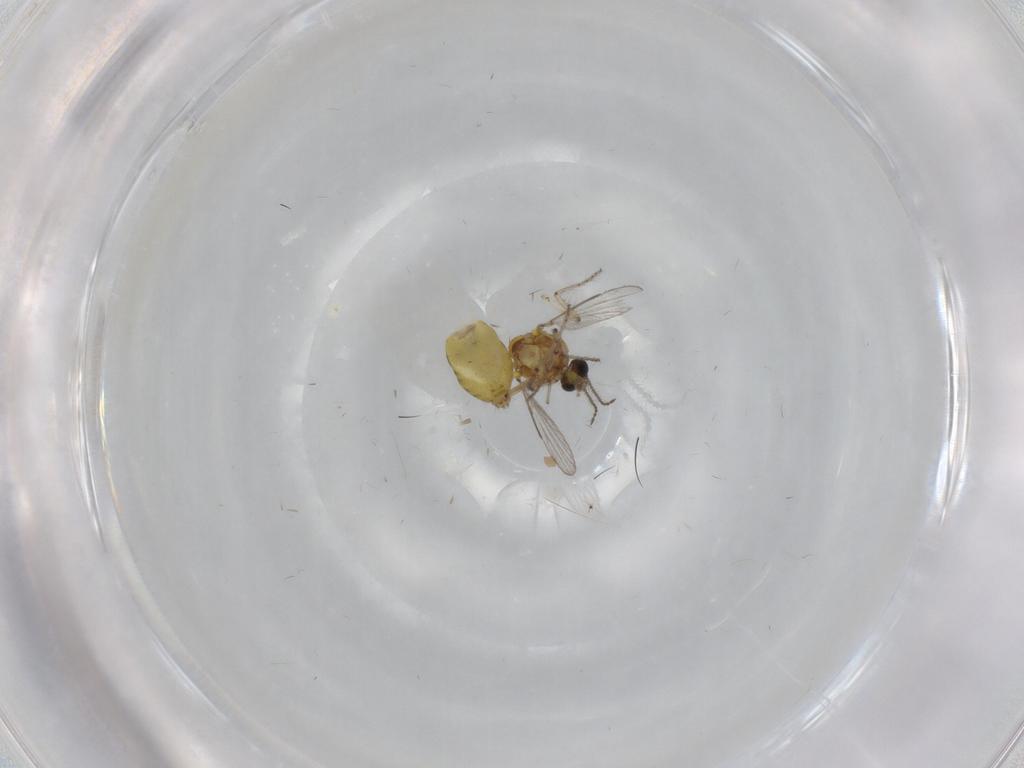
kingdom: Animalia
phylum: Arthropoda
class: Insecta
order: Diptera
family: Ceratopogonidae
